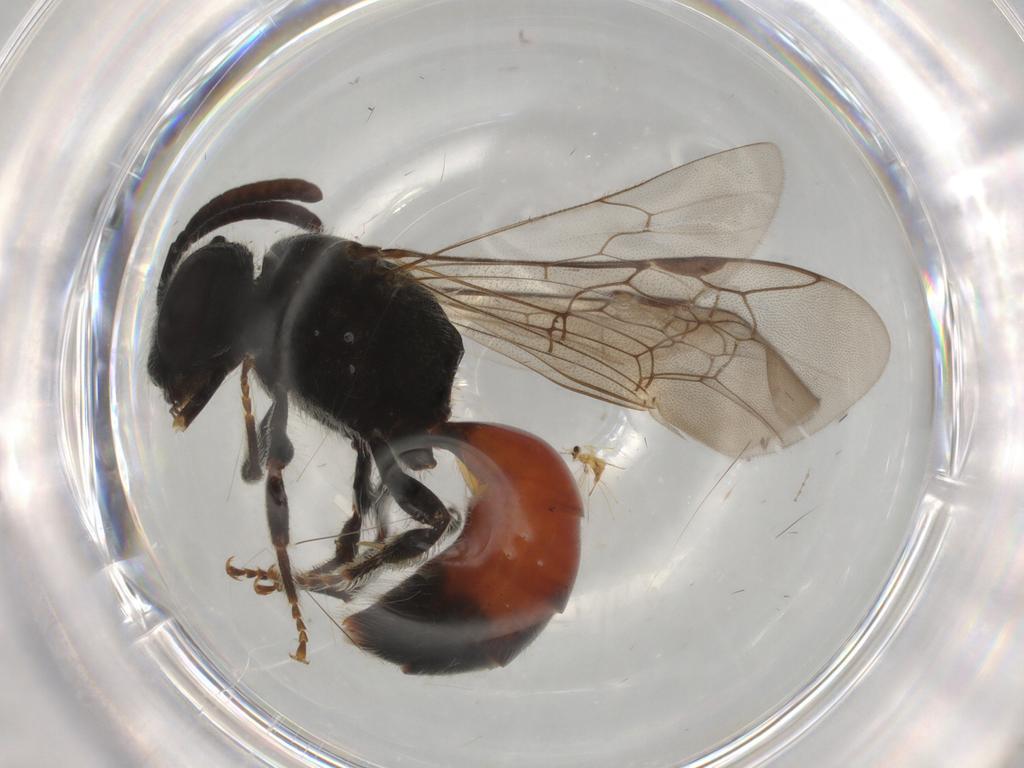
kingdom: Animalia
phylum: Arthropoda
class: Insecta
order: Hymenoptera
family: Halictidae
